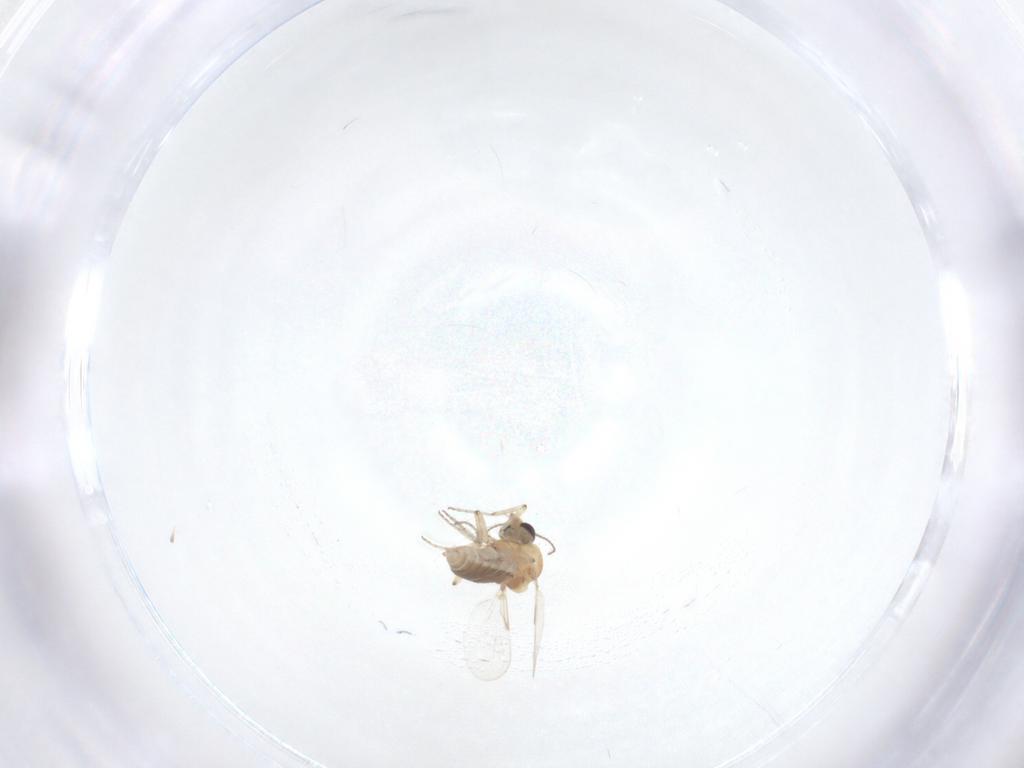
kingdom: Animalia
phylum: Arthropoda
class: Insecta
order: Diptera
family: Ceratopogonidae
